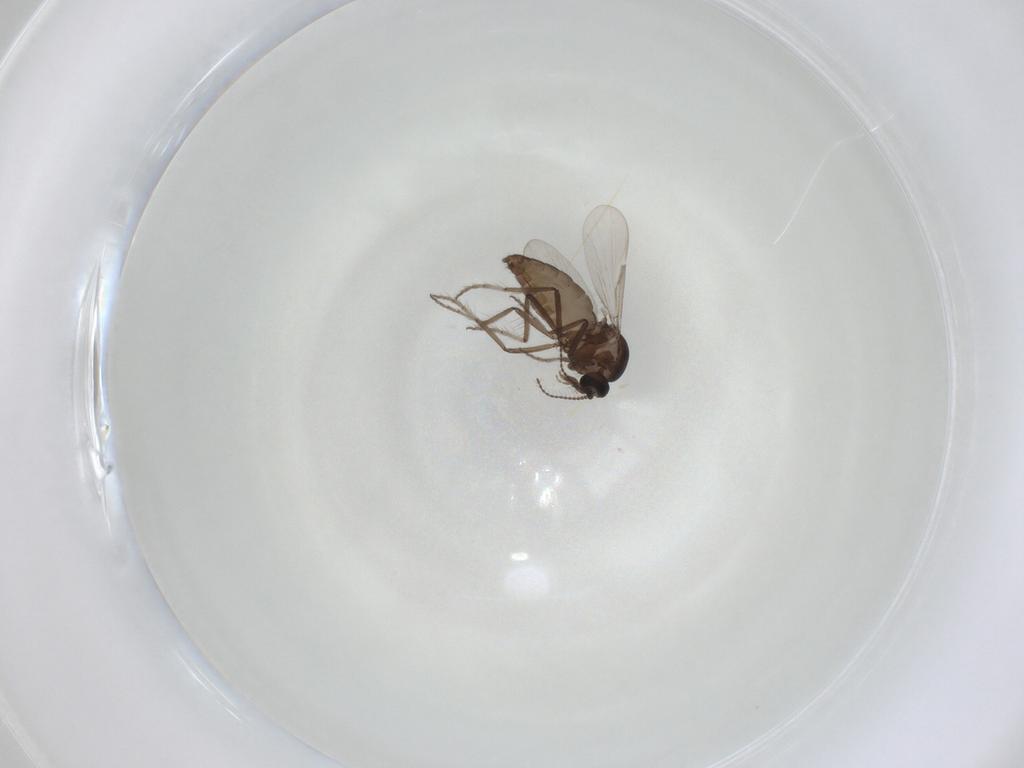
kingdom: Animalia
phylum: Arthropoda
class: Insecta
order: Diptera
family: Ceratopogonidae
